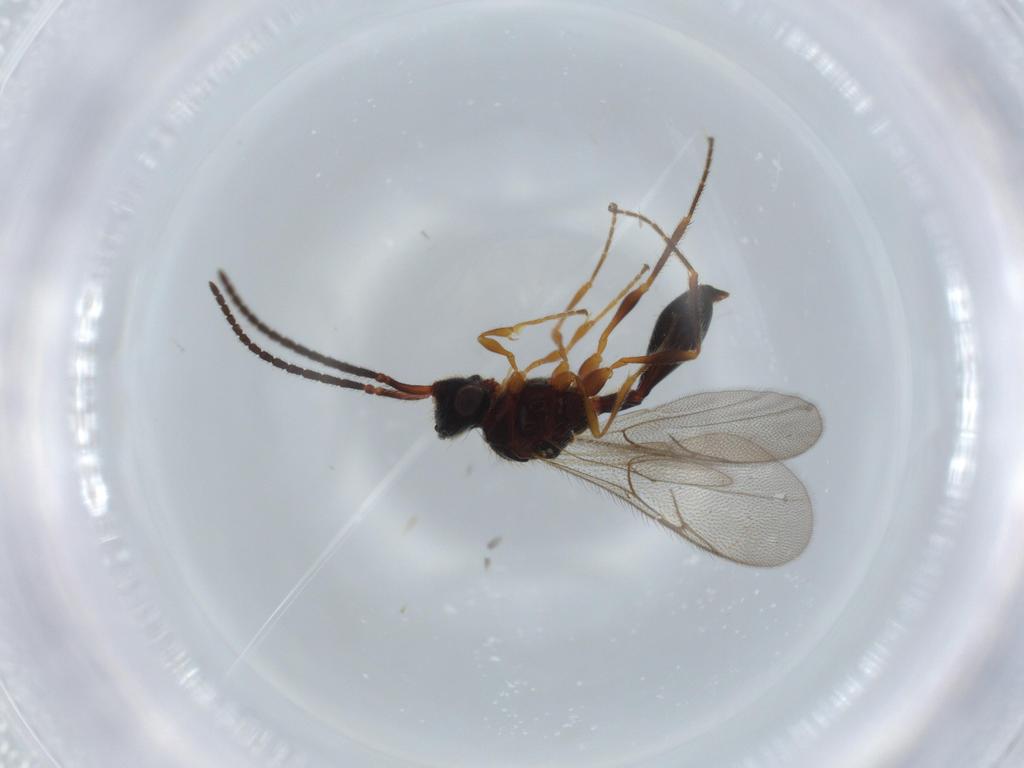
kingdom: Animalia
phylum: Arthropoda
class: Insecta
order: Hymenoptera
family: Diapriidae
